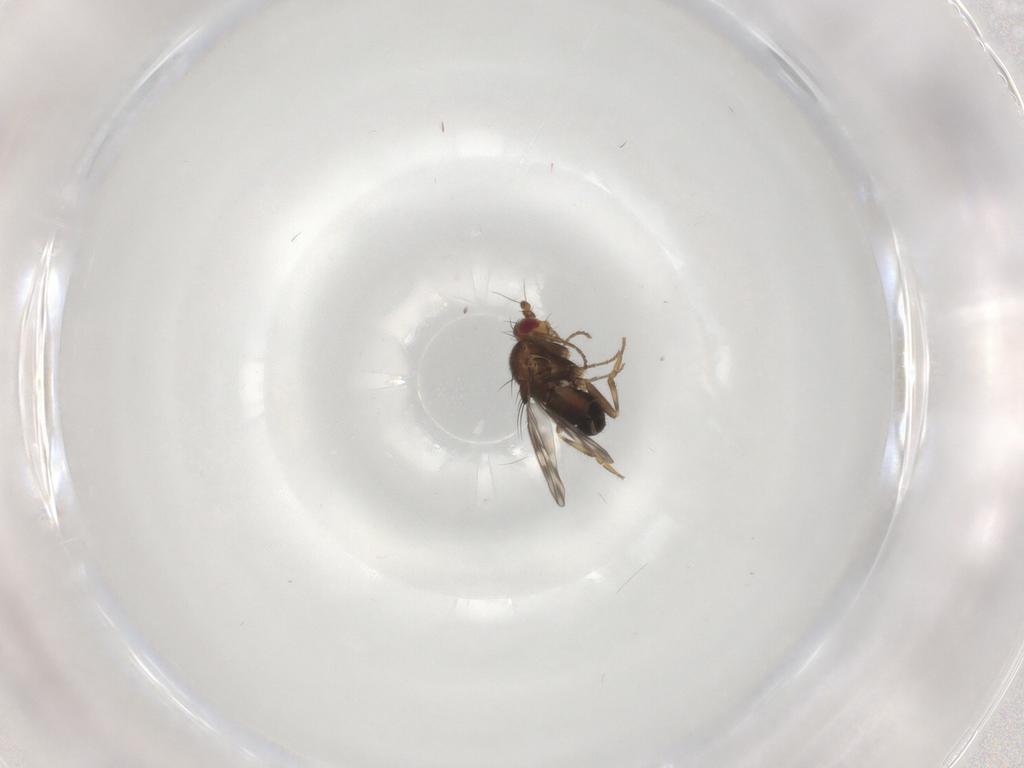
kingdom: Animalia
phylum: Arthropoda
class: Insecta
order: Diptera
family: Sphaeroceridae
